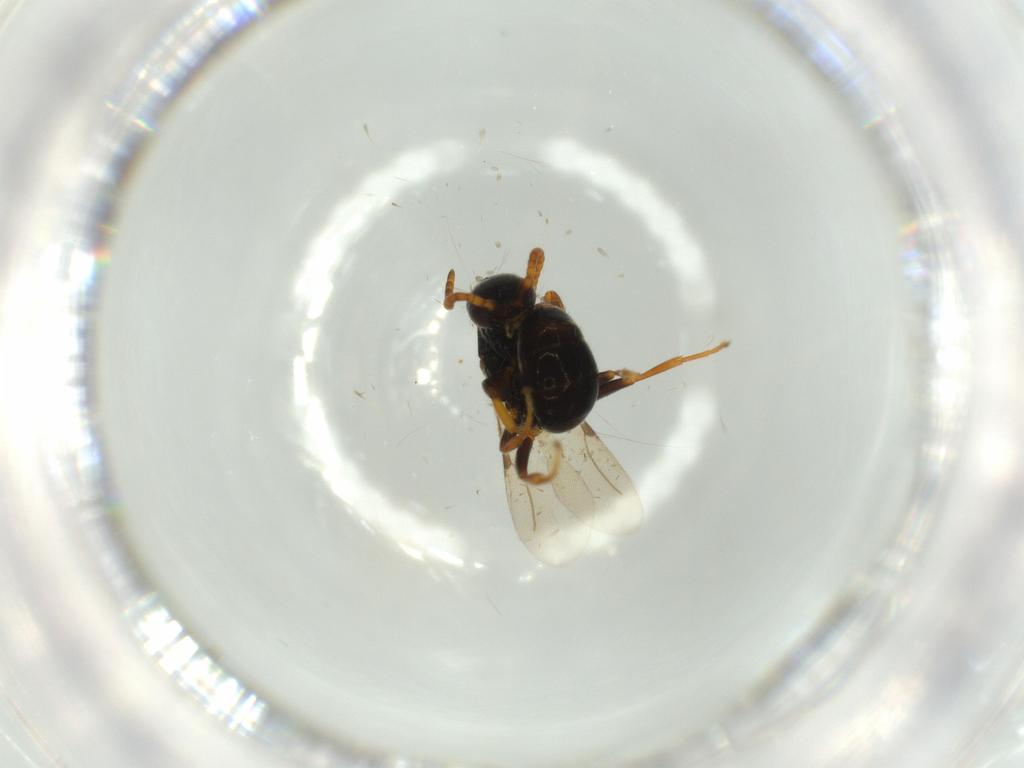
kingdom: Animalia
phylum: Arthropoda
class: Insecta
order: Hymenoptera
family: Bethylidae
